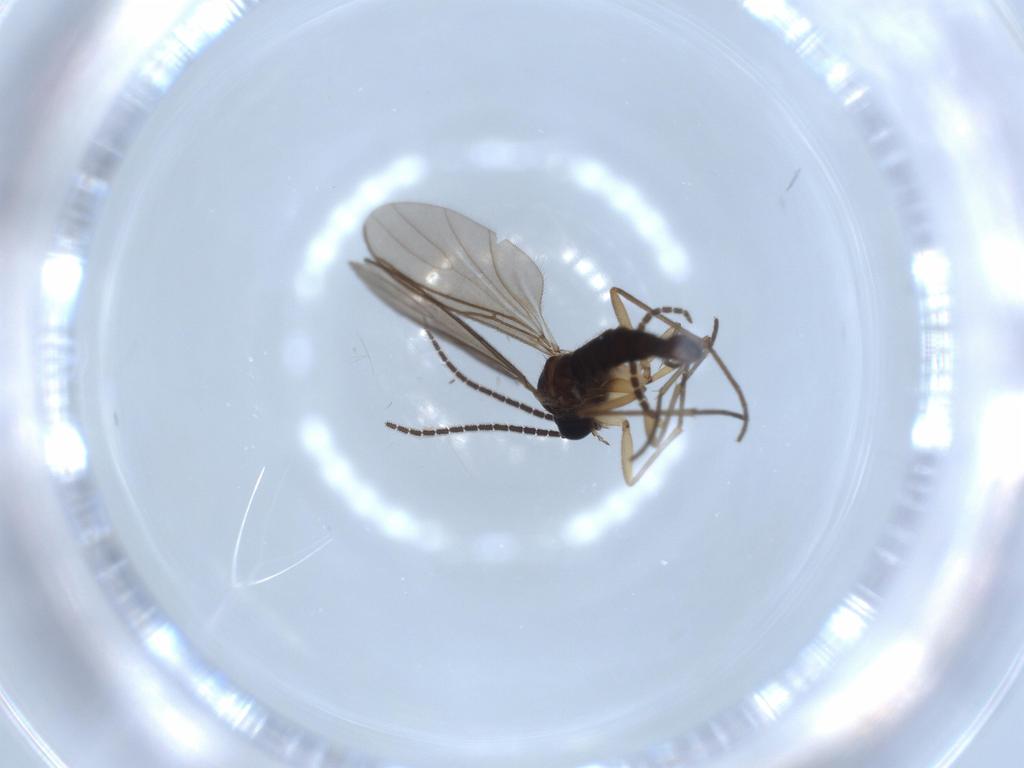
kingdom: Animalia
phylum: Arthropoda
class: Insecta
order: Diptera
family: Sciaridae
